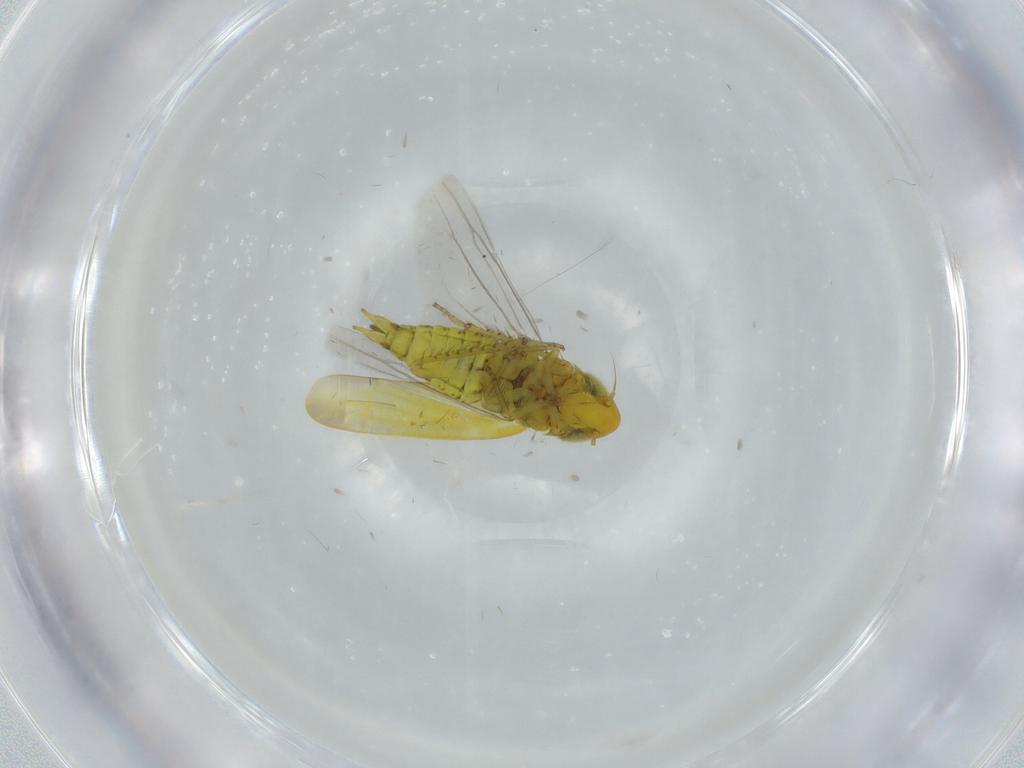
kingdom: Animalia
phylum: Arthropoda
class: Insecta
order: Hemiptera
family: Cicadellidae
